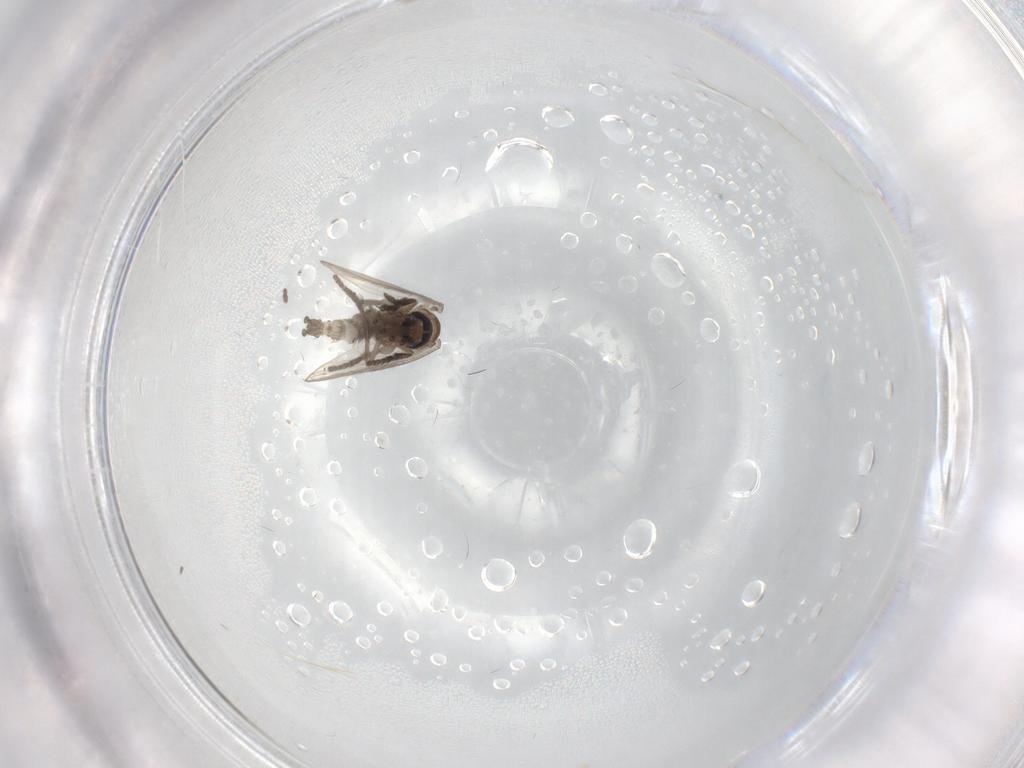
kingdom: Animalia
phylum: Arthropoda
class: Insecta
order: Diptera
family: Psychodidae
